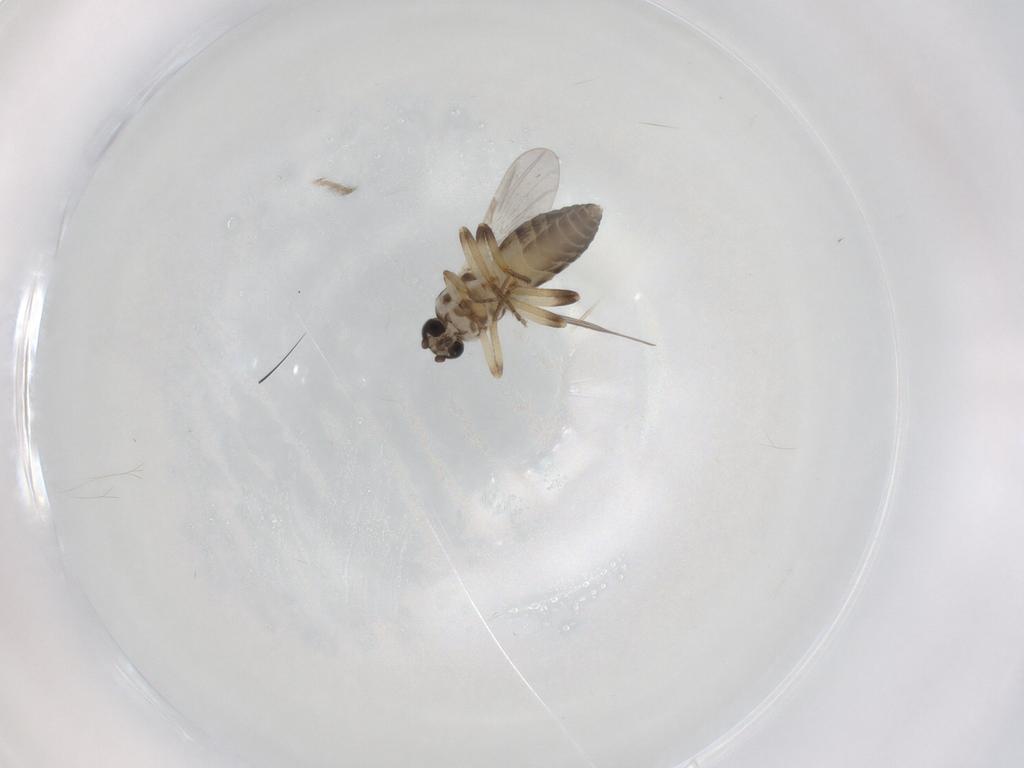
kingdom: Animalia
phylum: Arthropoda
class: Insecta
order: Diptera
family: Ceratopogonidae
